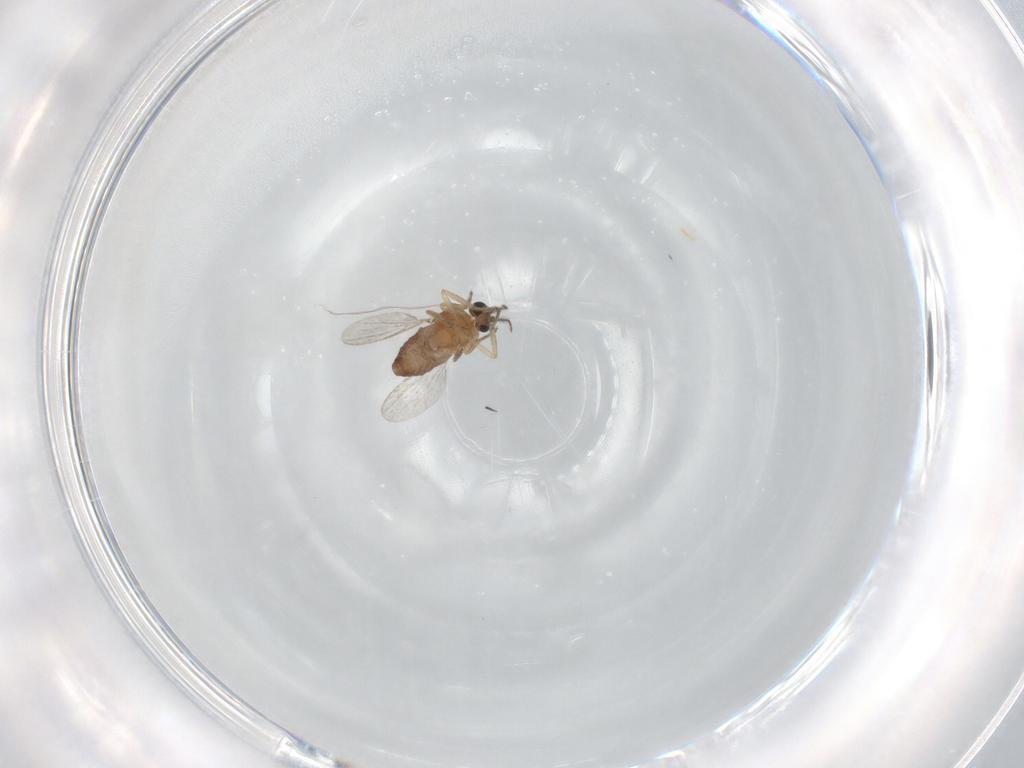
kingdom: Animalia
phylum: Arthropoda
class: Insecta
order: Diptera
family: Ceratopogonidae
